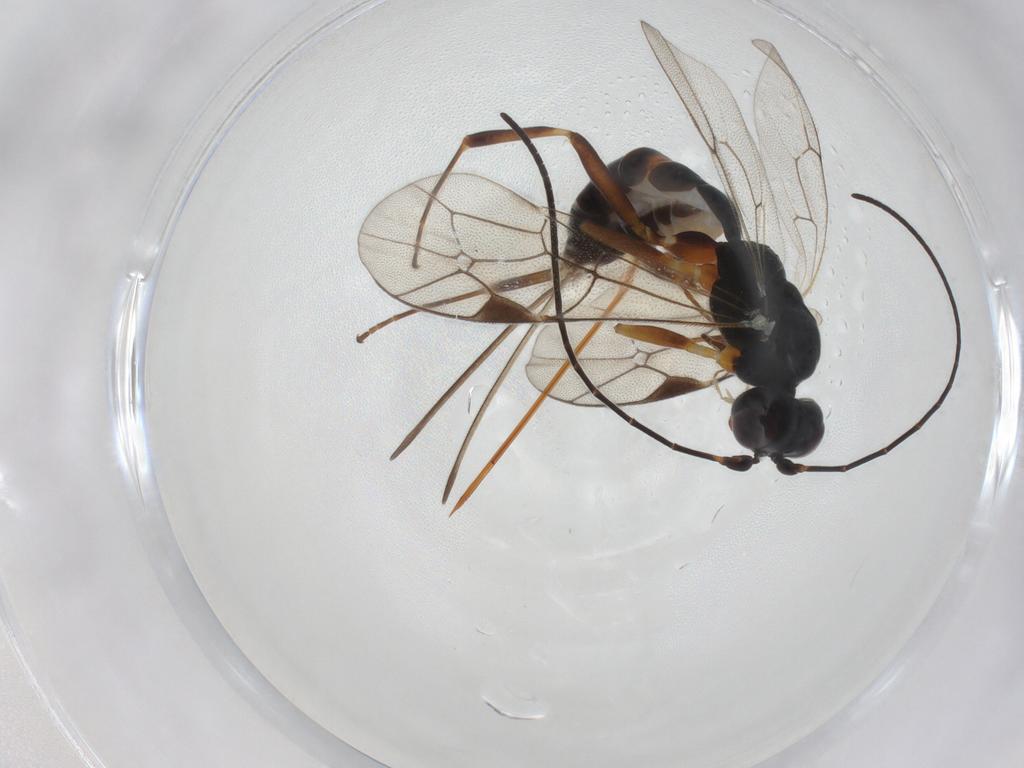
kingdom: Animalia
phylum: Arthropoda
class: Insecta
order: Hymenoptera
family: Ichneumonidae
